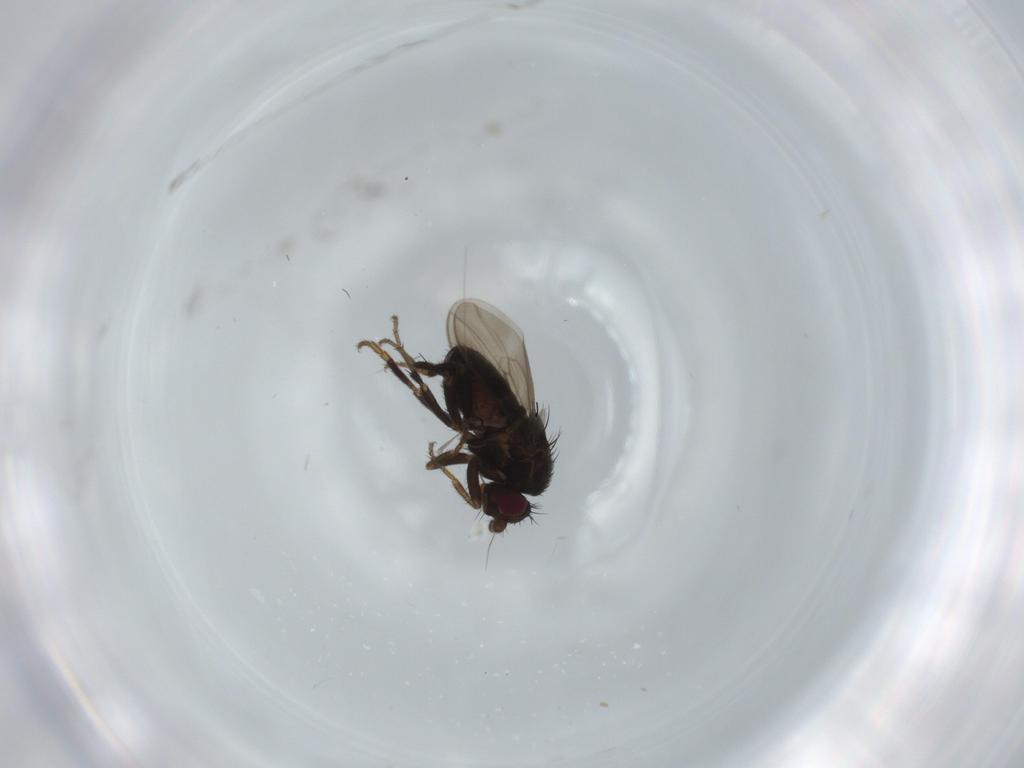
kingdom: Animalia
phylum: Arthropoda
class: Insecta
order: Diptera
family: Sphaeroceridae
